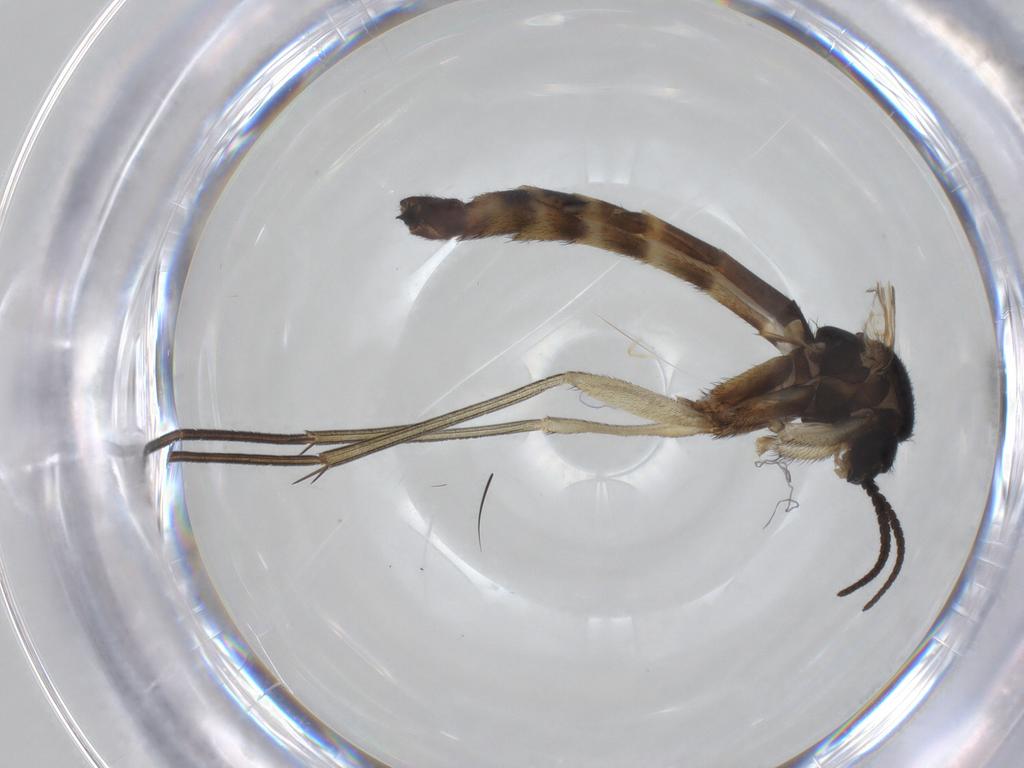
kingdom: Animalia
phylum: Arthropoda
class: Insecta
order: Diptera
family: Keroplatidae
